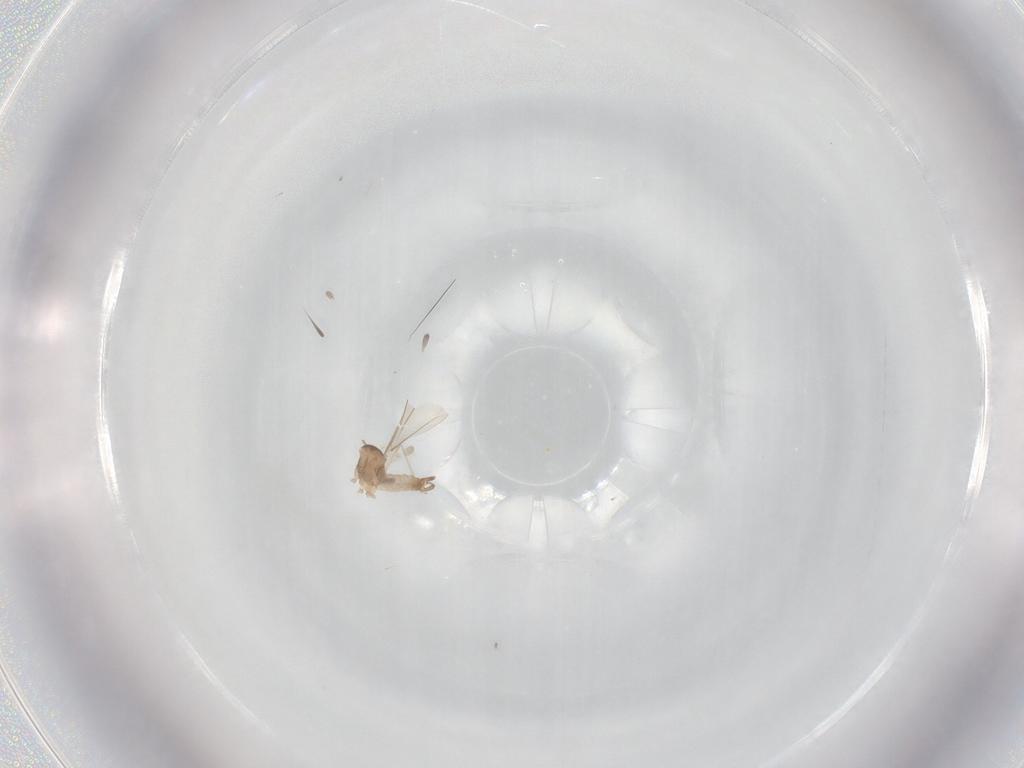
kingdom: Animalia
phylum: Arthropoda
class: Insecta
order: Diptera
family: Cecidomyiidae
